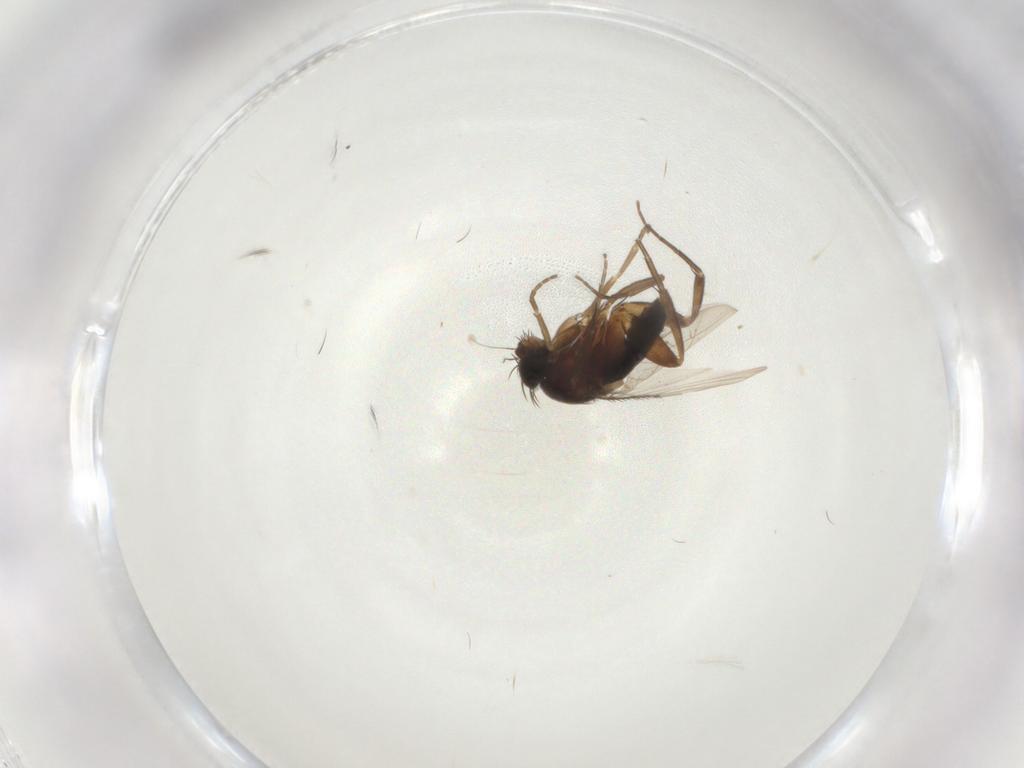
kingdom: Animalia
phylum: Arthropoda
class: Insecta
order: Hymenoptera
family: Scelionidae
